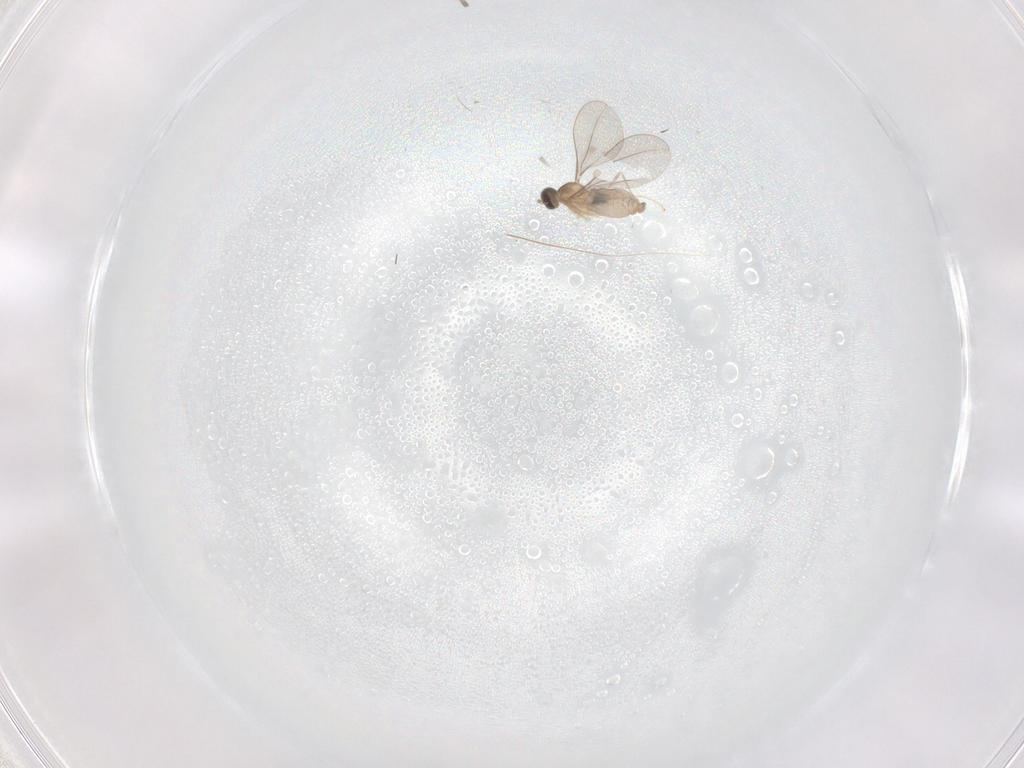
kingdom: Animalia
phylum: Arthropoda
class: Insecta
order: Diptera
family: Cecidomyiidae
